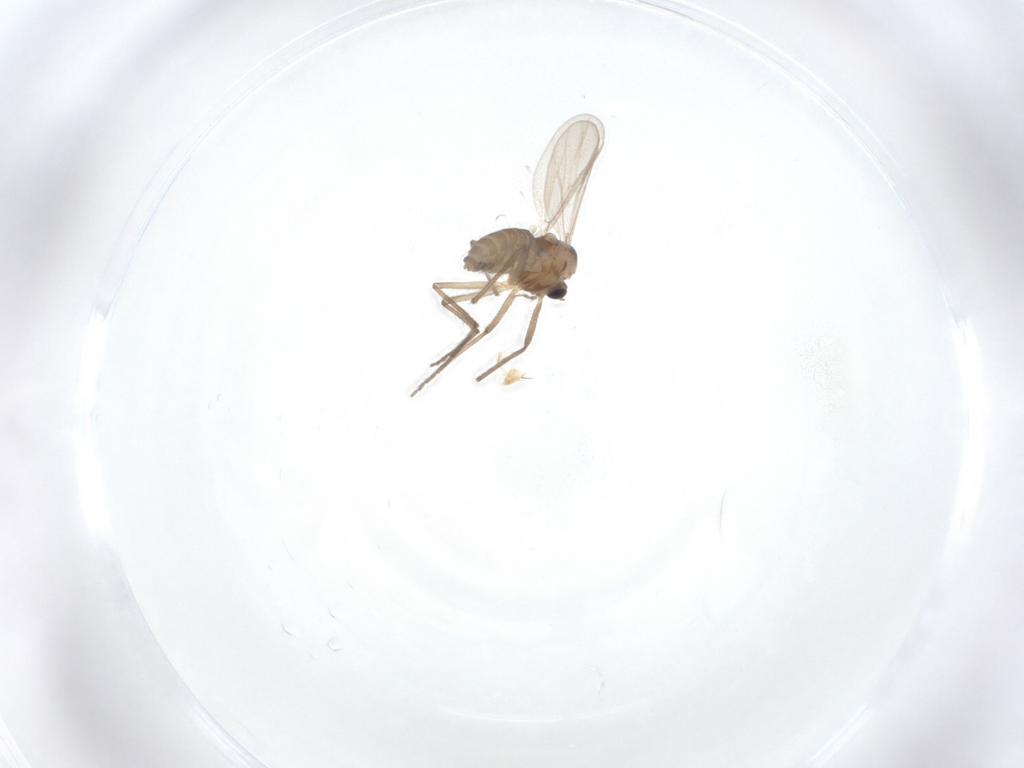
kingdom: Animalia
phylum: Arthropoda
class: Insecta
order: Diptera
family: Chironomidae
